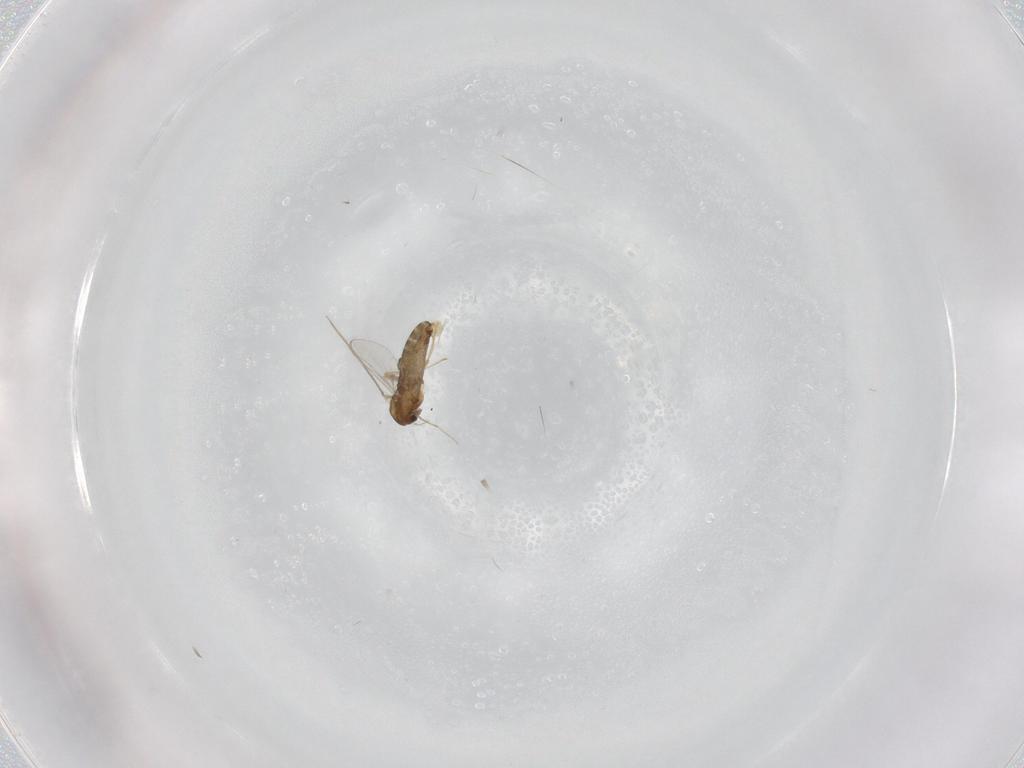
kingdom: Animalia
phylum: Arthropoda
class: Insecta
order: Diptera
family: Chironomidae
